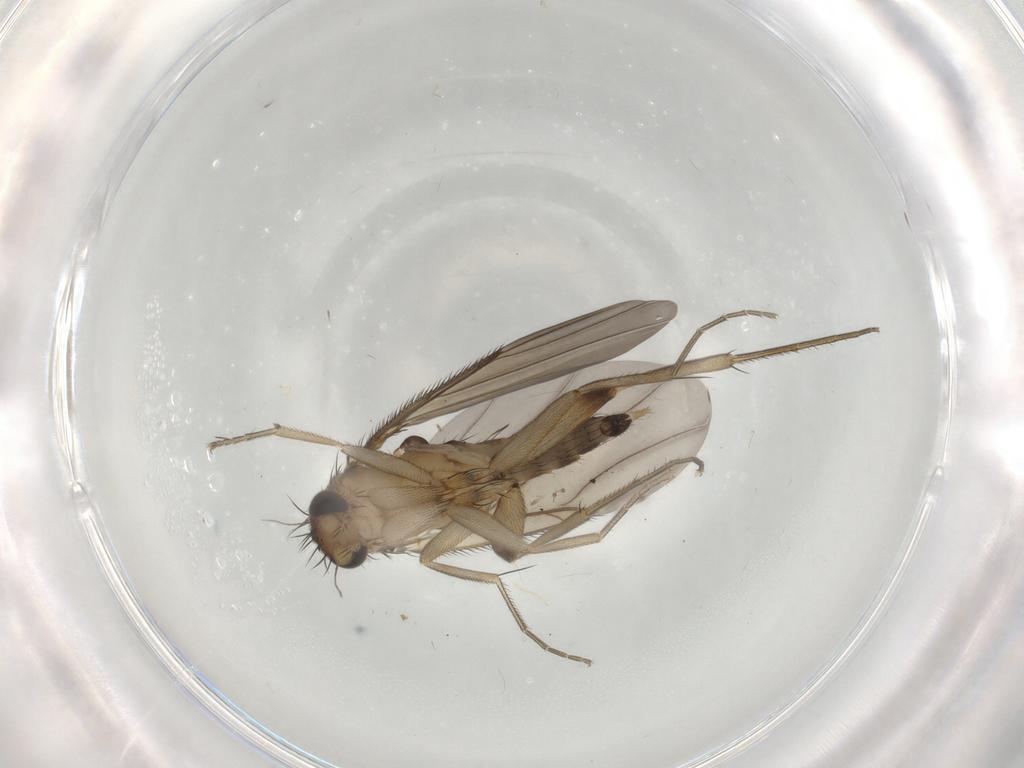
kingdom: Animalia
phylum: Arthropoda
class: Insecta
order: Diptera
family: Phoridae
